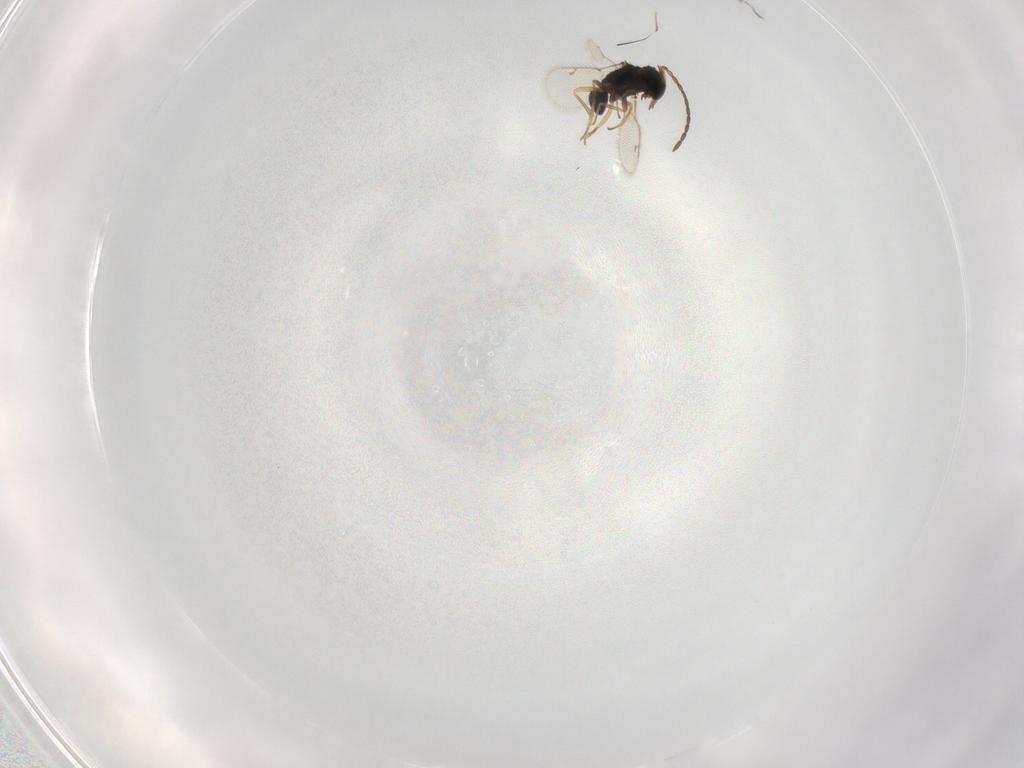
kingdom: Animalia
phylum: Arthropoda
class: Insecta
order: Hymenoptera
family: Diparidae
